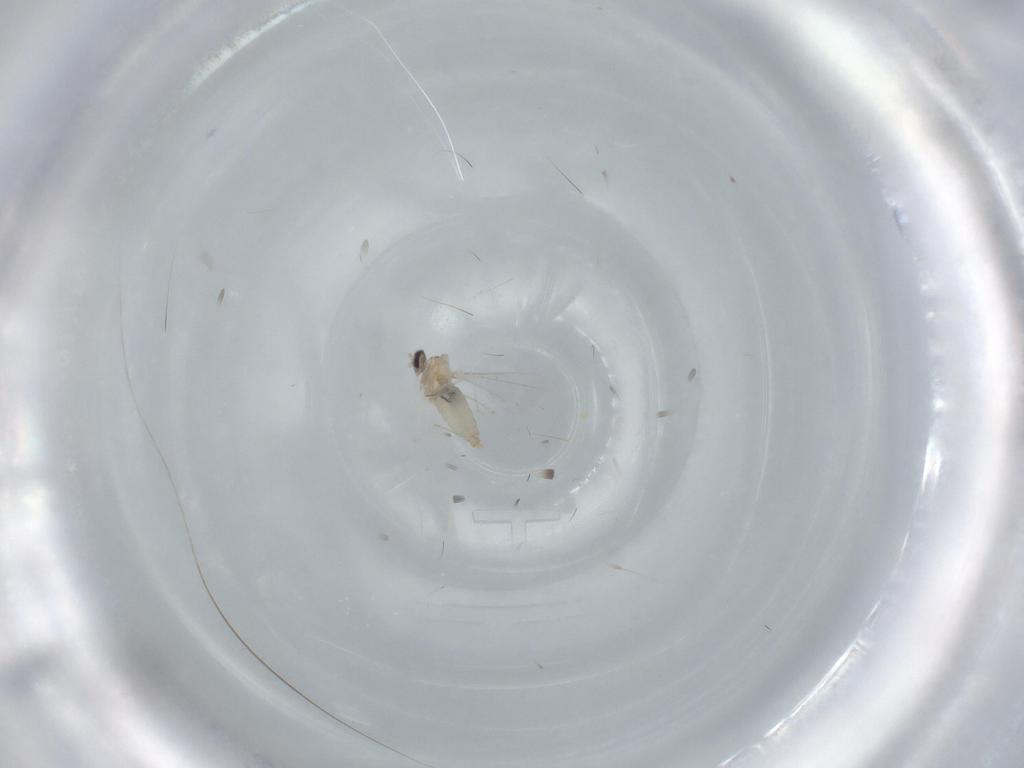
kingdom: Animalia
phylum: Arthropoda
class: Insecta
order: Diptera
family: Cecidomyiidae
